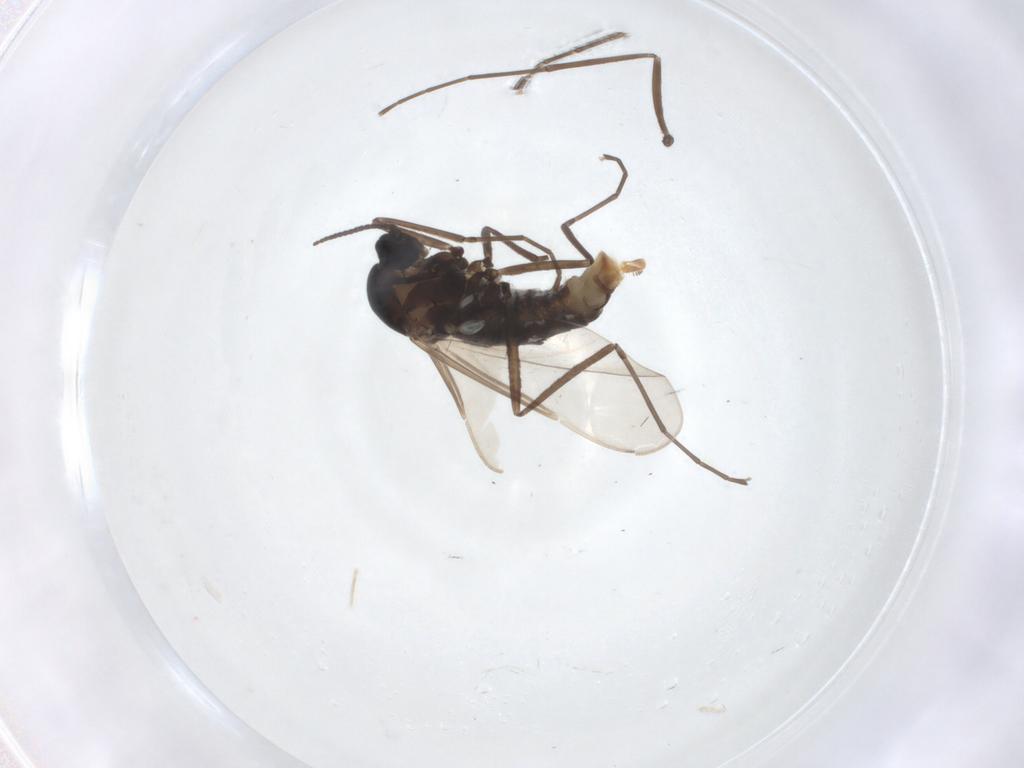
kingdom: Animalia
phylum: Arthropoda
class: Insecta
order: Diptera
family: Cecidomyiidae
